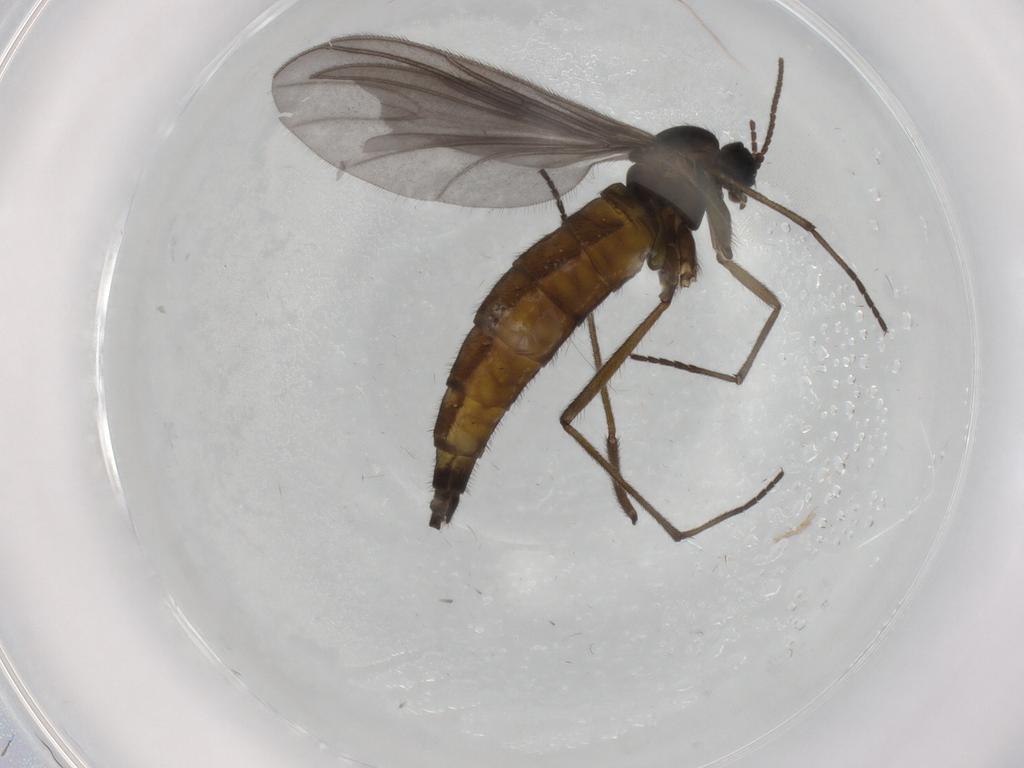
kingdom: Animalia
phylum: Arthropoda
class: Insecta
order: Diptera
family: Sciaridae
